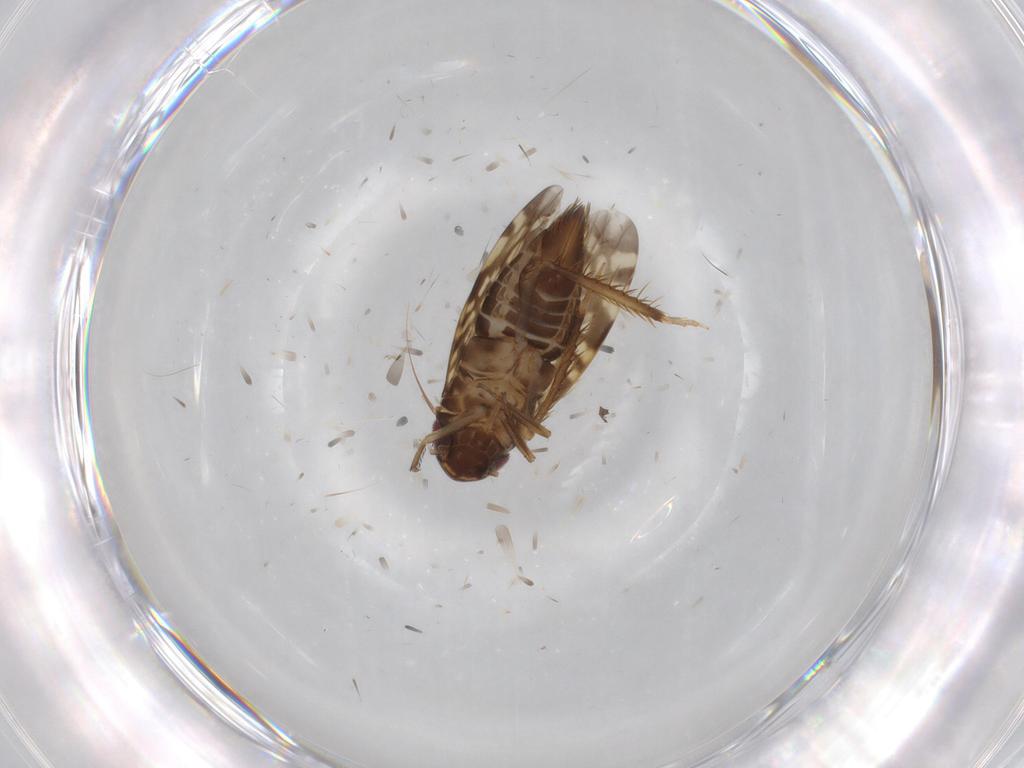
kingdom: Animalia
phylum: Arthropoda
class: Insecta
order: Hemiptera
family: Cicadellidae
